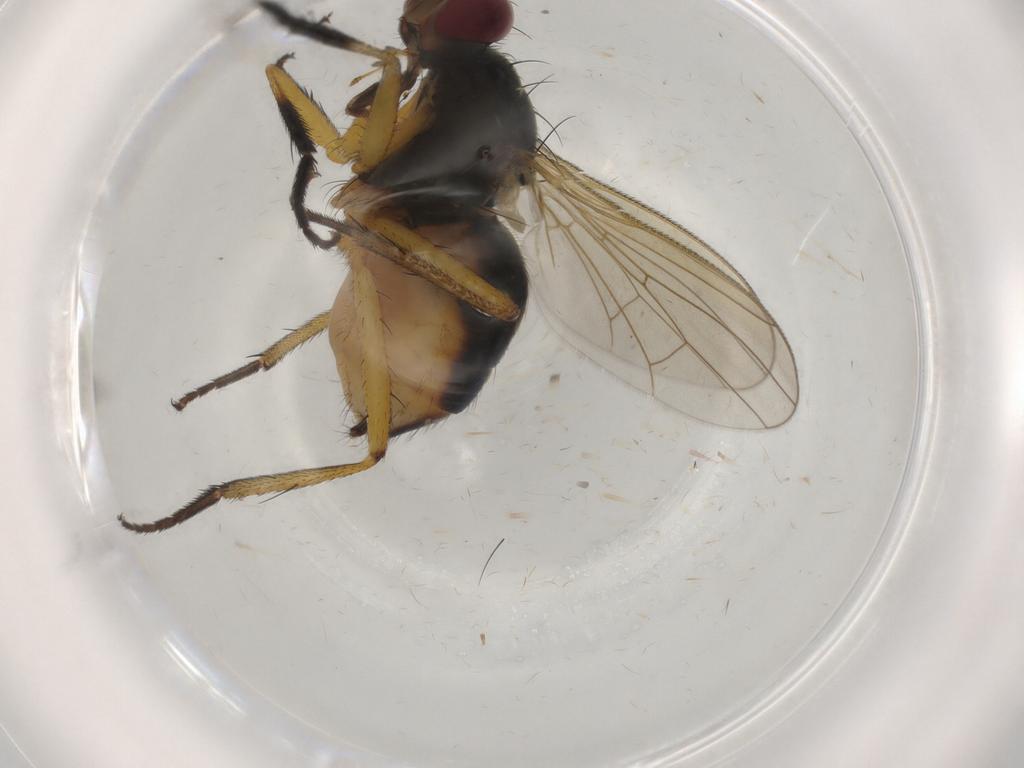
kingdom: Animalia
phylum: Arthropoda
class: Insecta
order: Diptera
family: Muscidae
